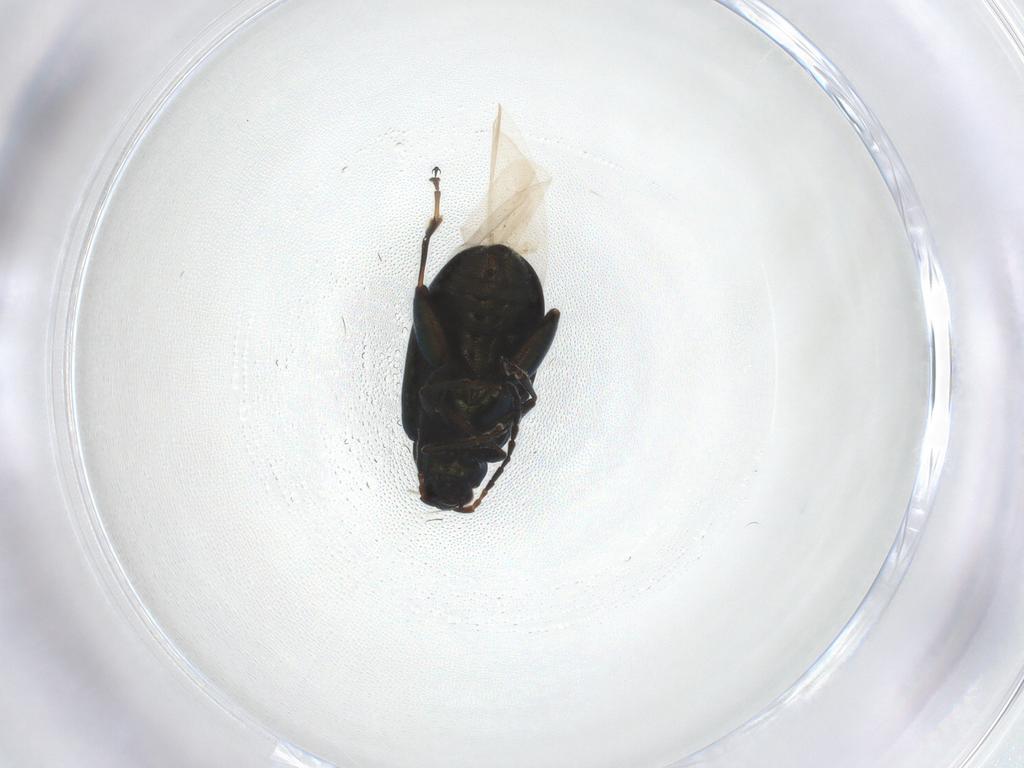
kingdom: Animalia
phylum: Arthropoda
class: Insecta
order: Coleoptera
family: Chrysomelidae
